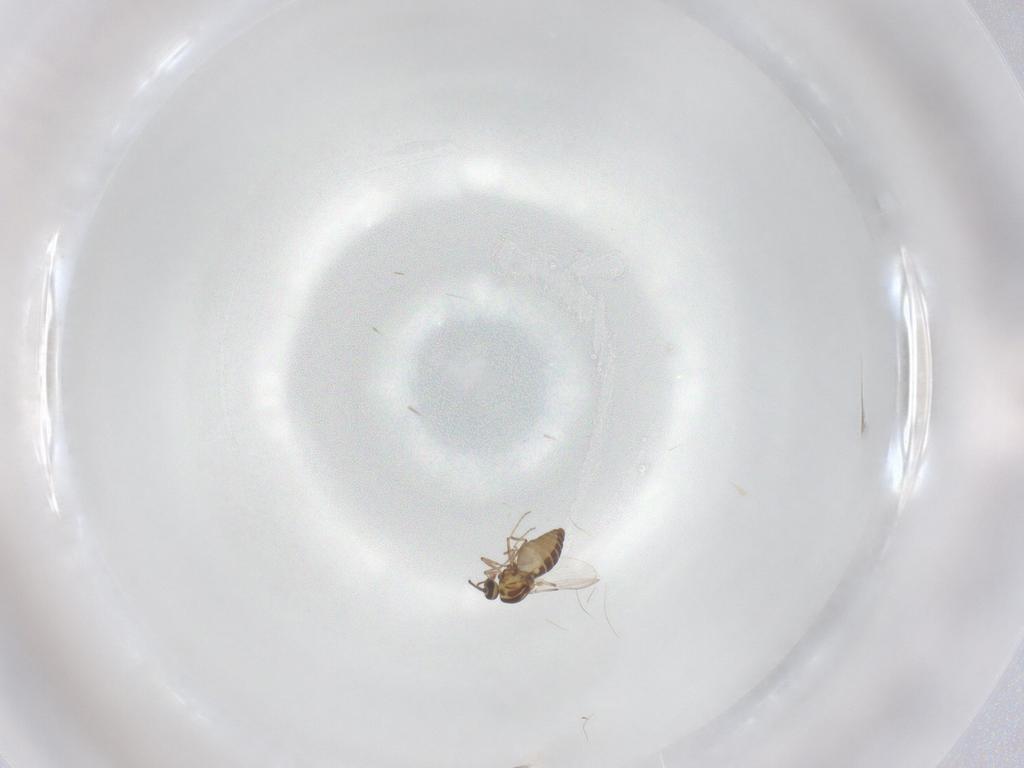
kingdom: Animalia
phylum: Arthropoda
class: Insecta
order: Diptera
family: Ceratopogonidae
